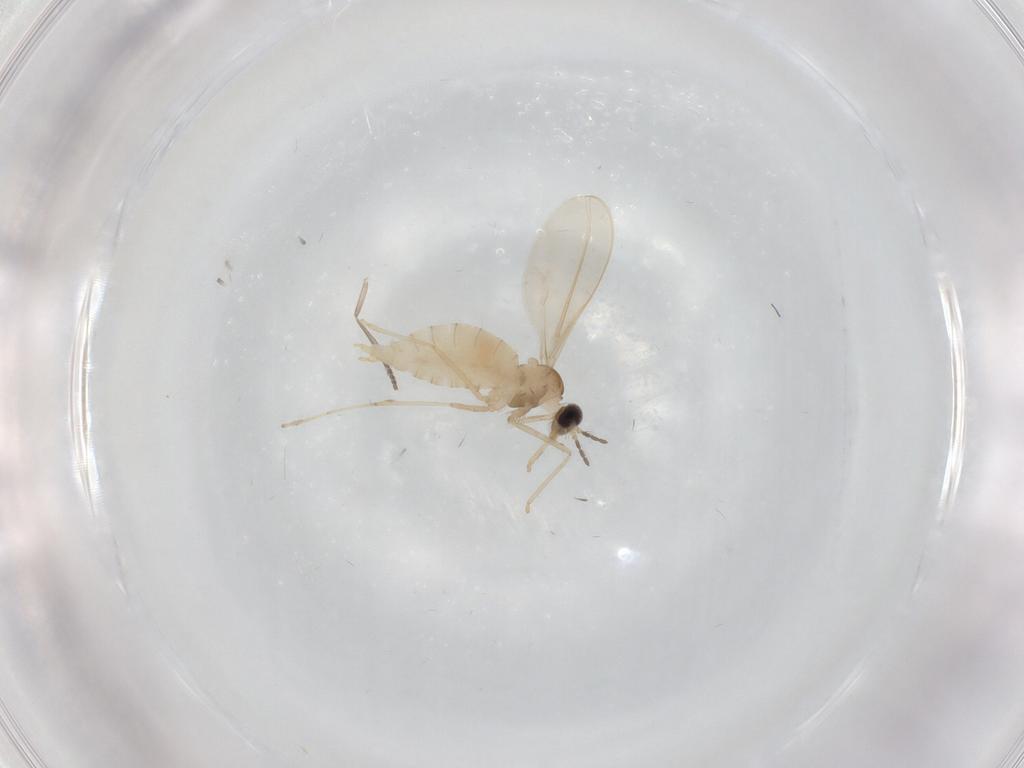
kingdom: Animalia
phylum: Arthropoda
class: Insecta
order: Diptera
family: Cecidomyiidae
